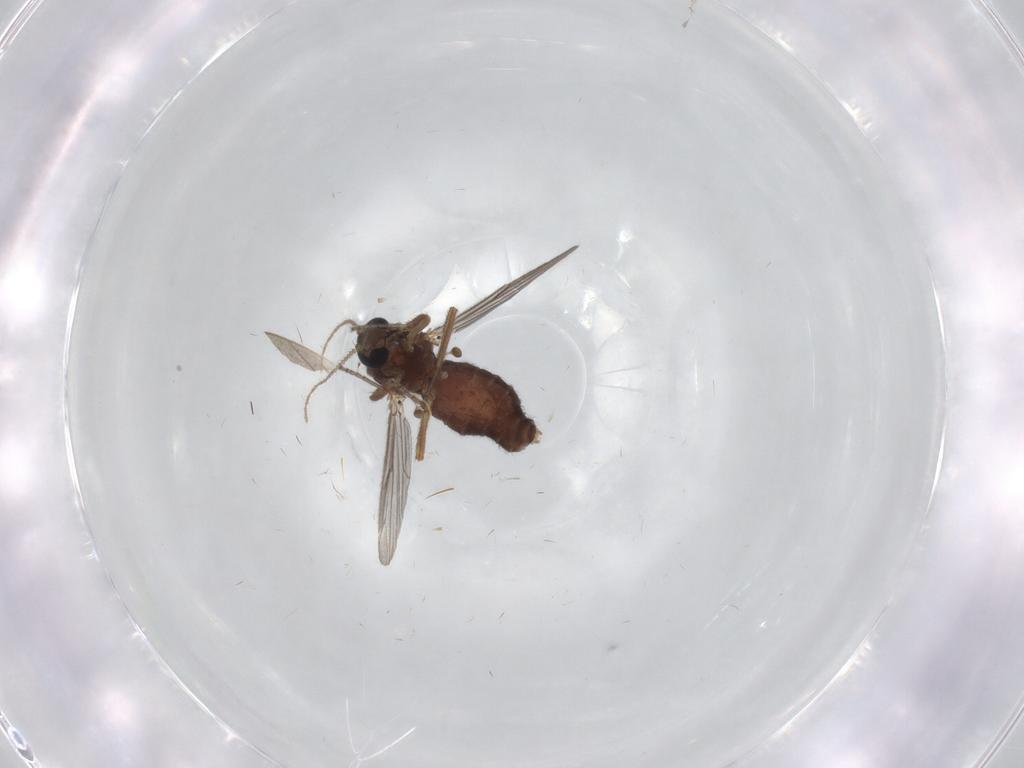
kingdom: Animalia
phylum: Arthropoda
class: Insecta
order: Diptera
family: Ceratopogonidae
